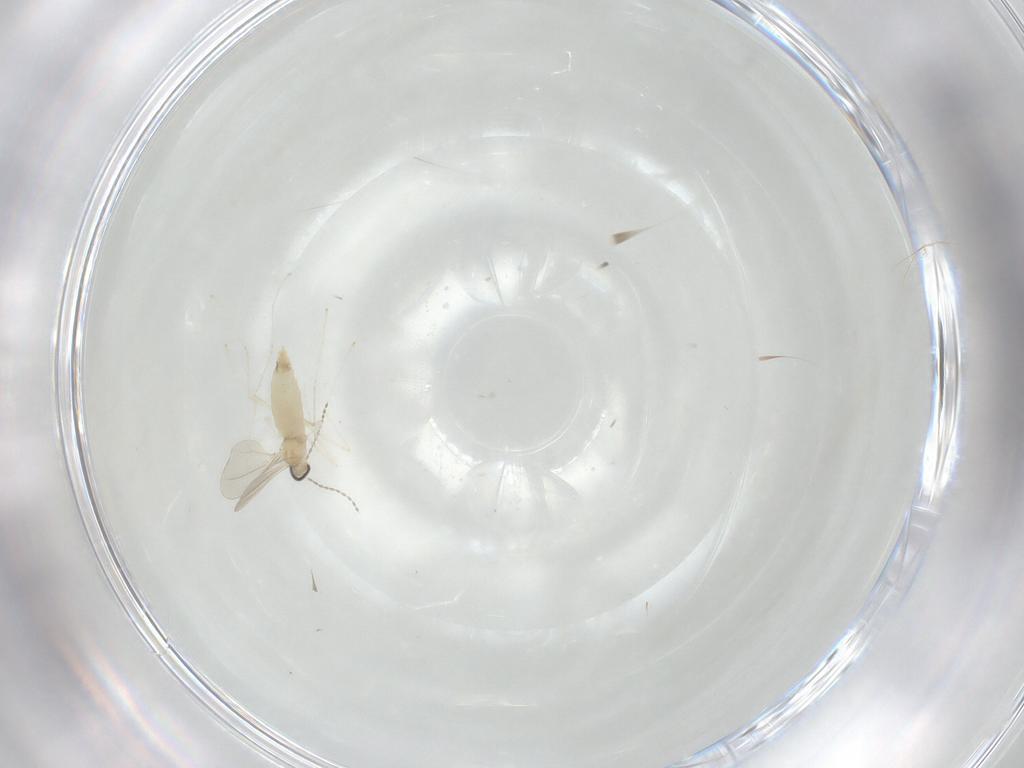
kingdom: Animalia
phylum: Arthropoda
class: Insecta
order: Diptera
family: Cecidomyiidae
